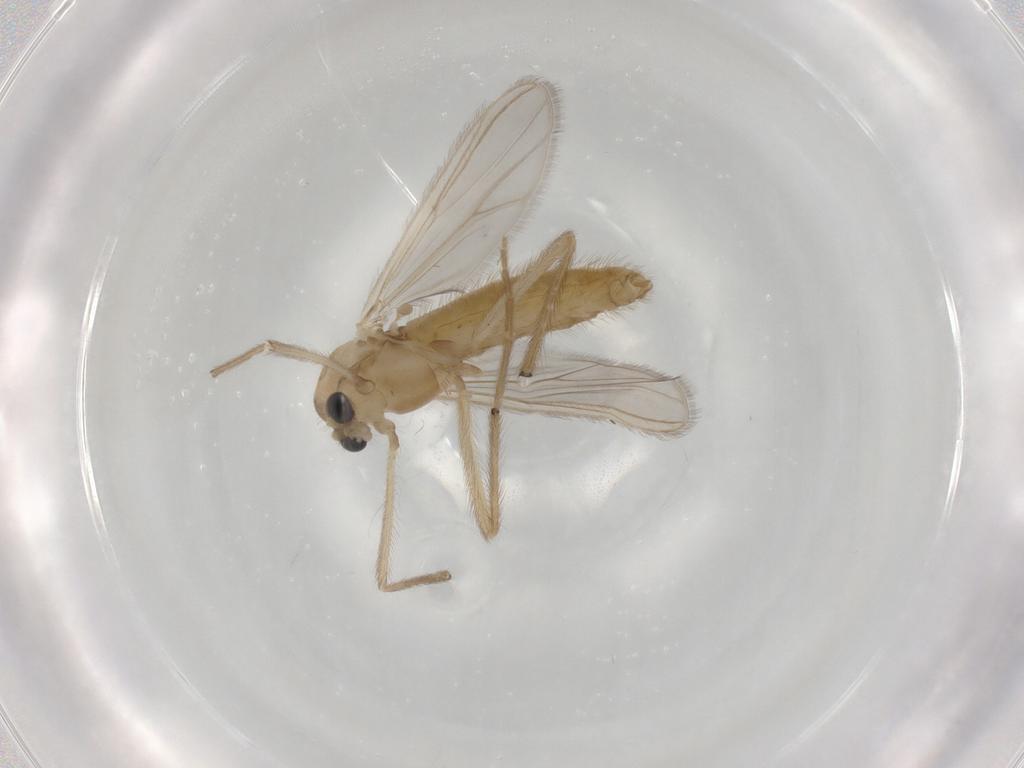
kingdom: Animalia
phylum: Arthropoda
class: Insecta
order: Diptera
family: Chironomidae
